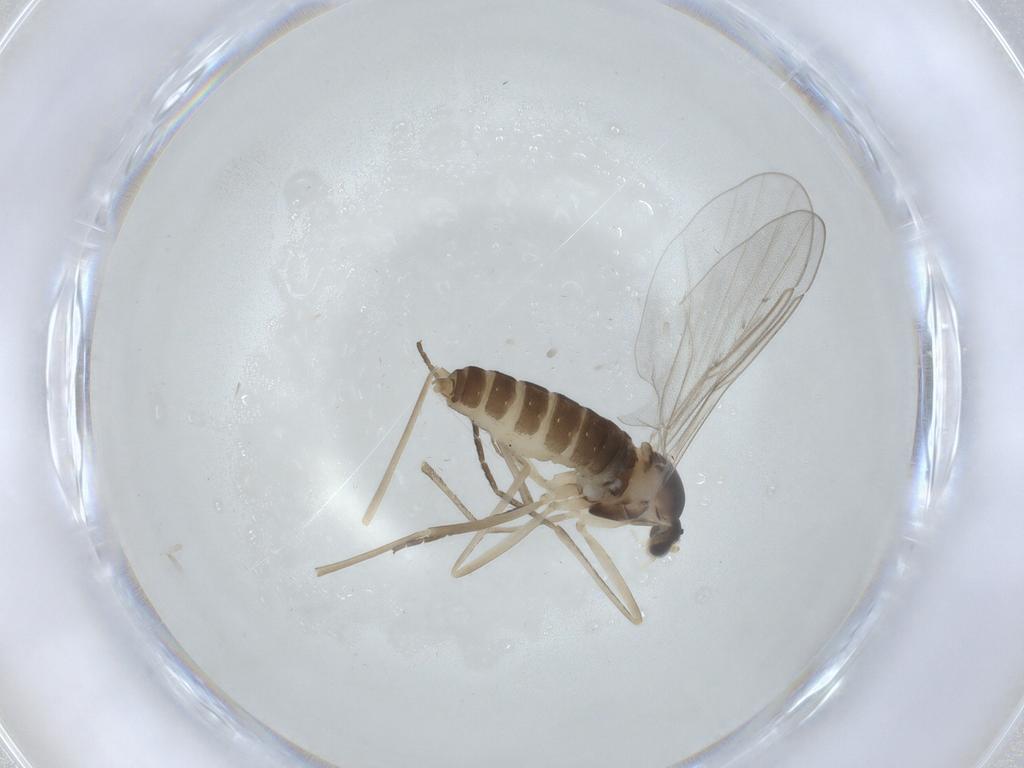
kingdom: Animalia
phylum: Arthropoda
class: Insecta
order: Diptera
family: Cecidomyiidae
